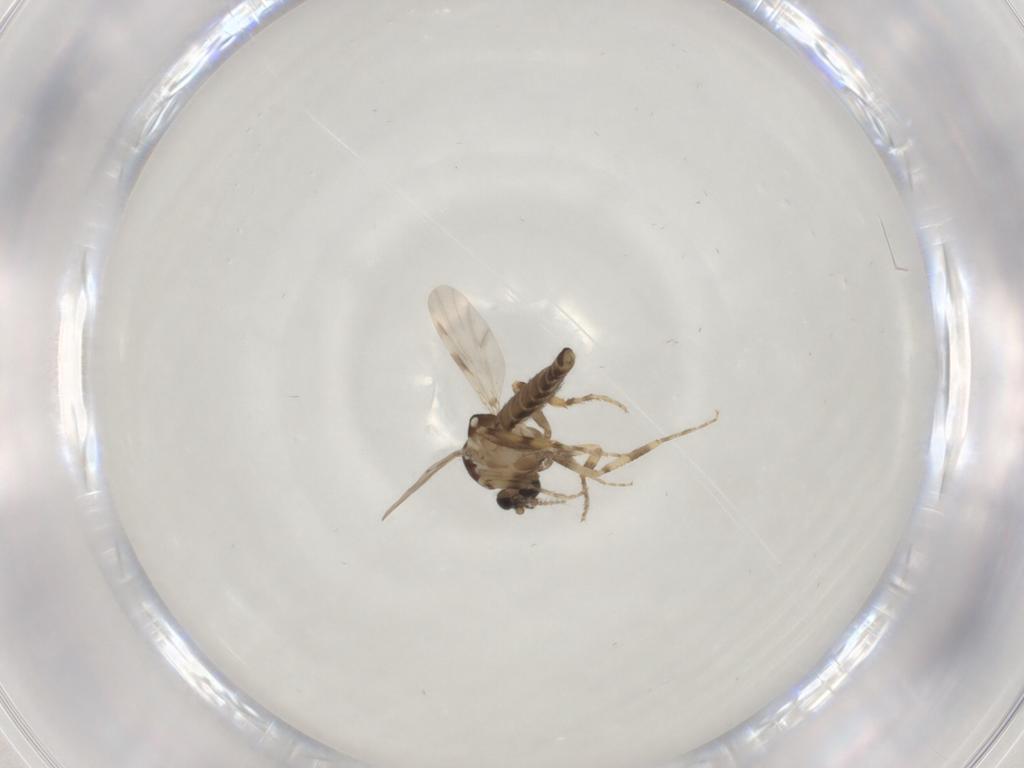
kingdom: Animalia
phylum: Arthropoda
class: Insecta
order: Diptera
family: Ceratopogonidae
